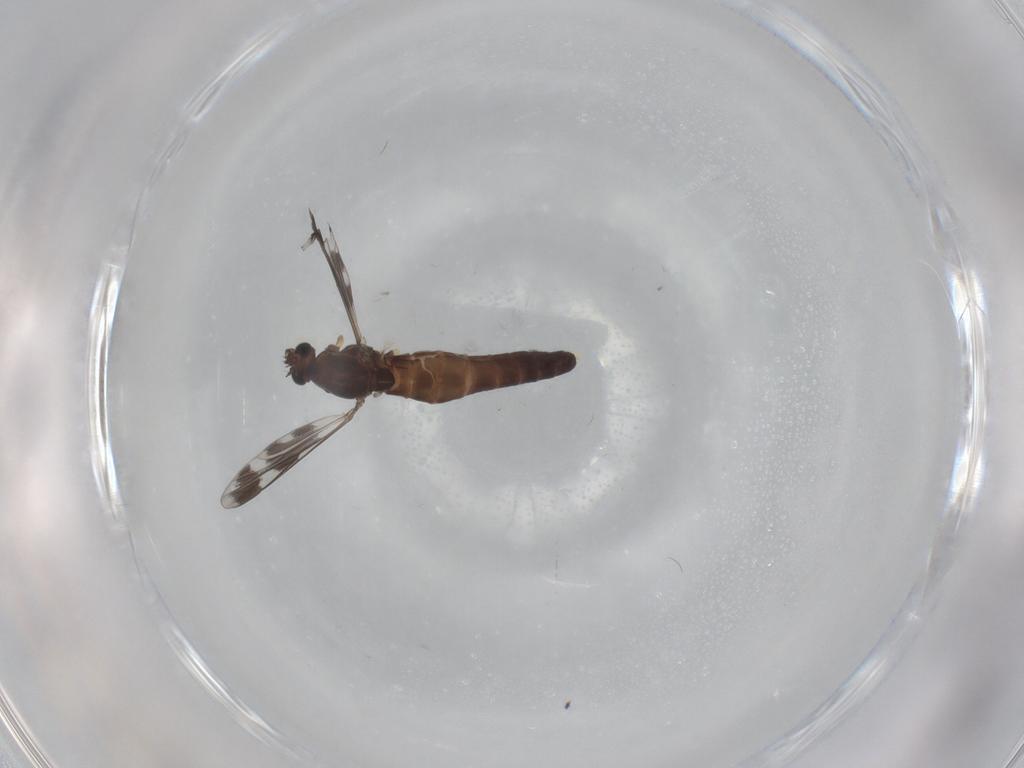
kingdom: Animalia
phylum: Arthropoda
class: Insecta
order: Diptera
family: Chironomidae
